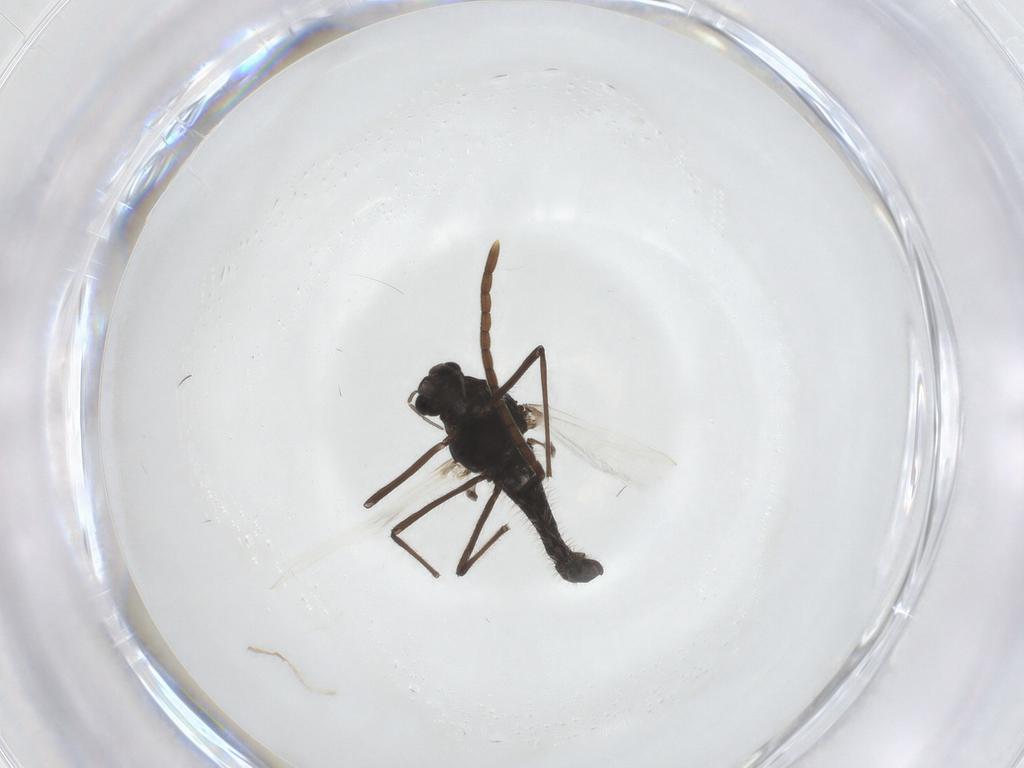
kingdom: Animalia
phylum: Arthropoda
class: Insecta
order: Diptera
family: Chironomidae
